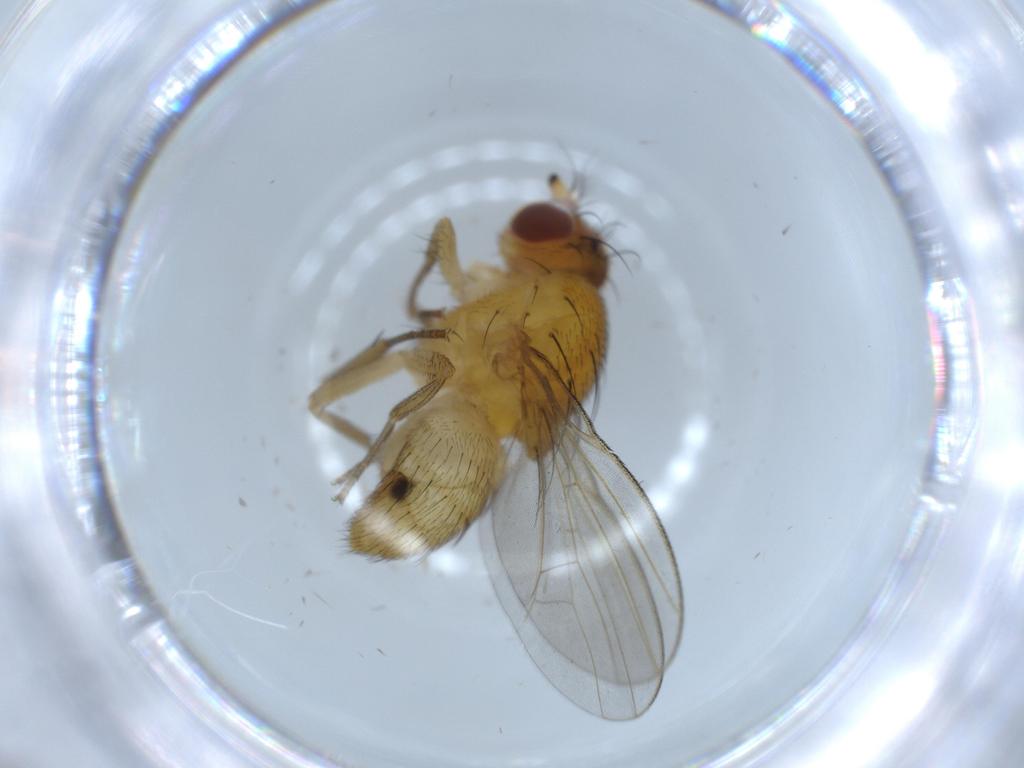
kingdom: Animalia
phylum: Arthropoda
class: Insecta
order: Diptera
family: Lauxaniidae
